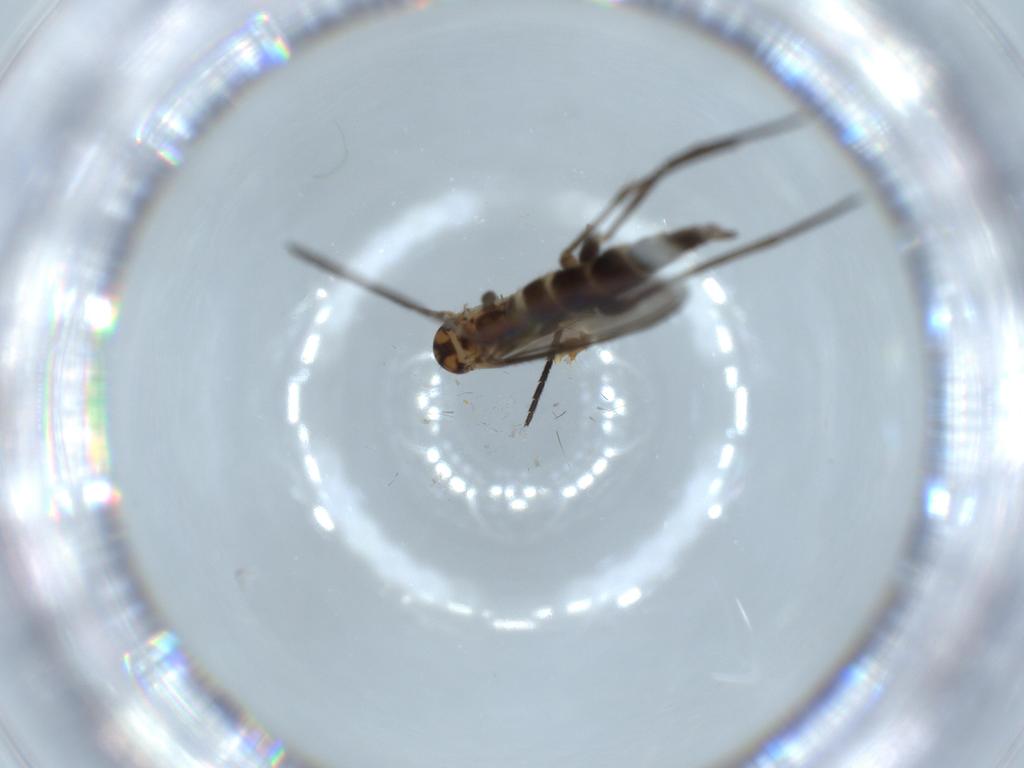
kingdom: Animalia
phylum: Arthropoda
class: Insecta
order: Diptera
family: Sciaridae
